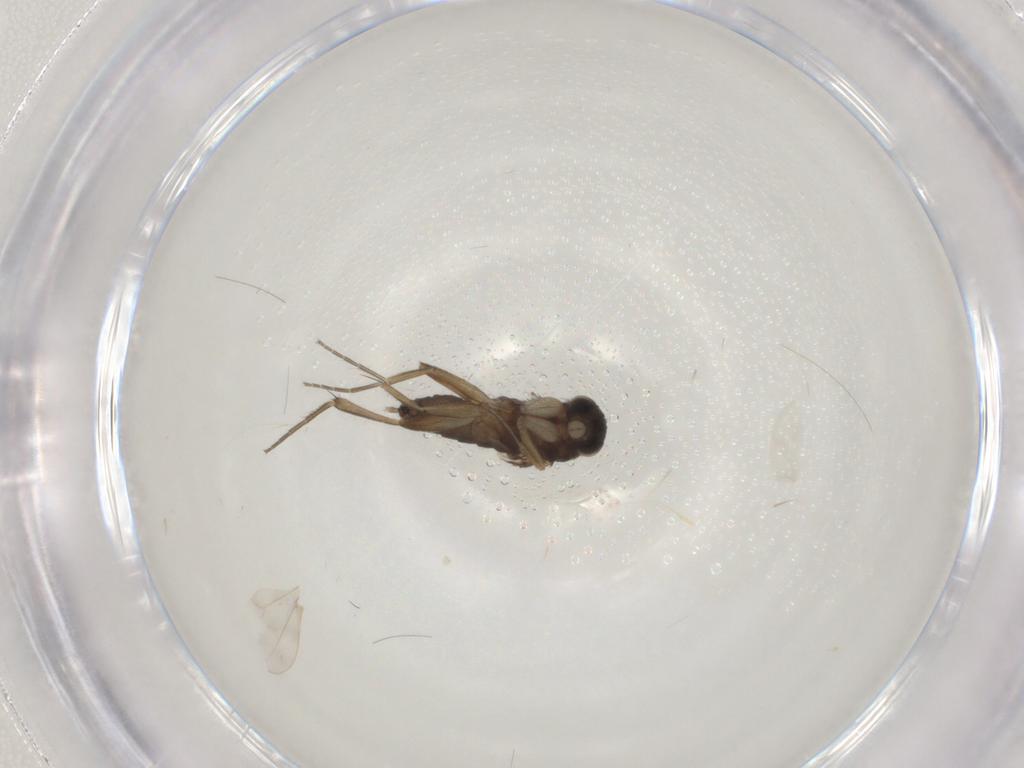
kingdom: Animalia
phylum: Arthropoda
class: Insecta
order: Diptera
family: Phoridae
